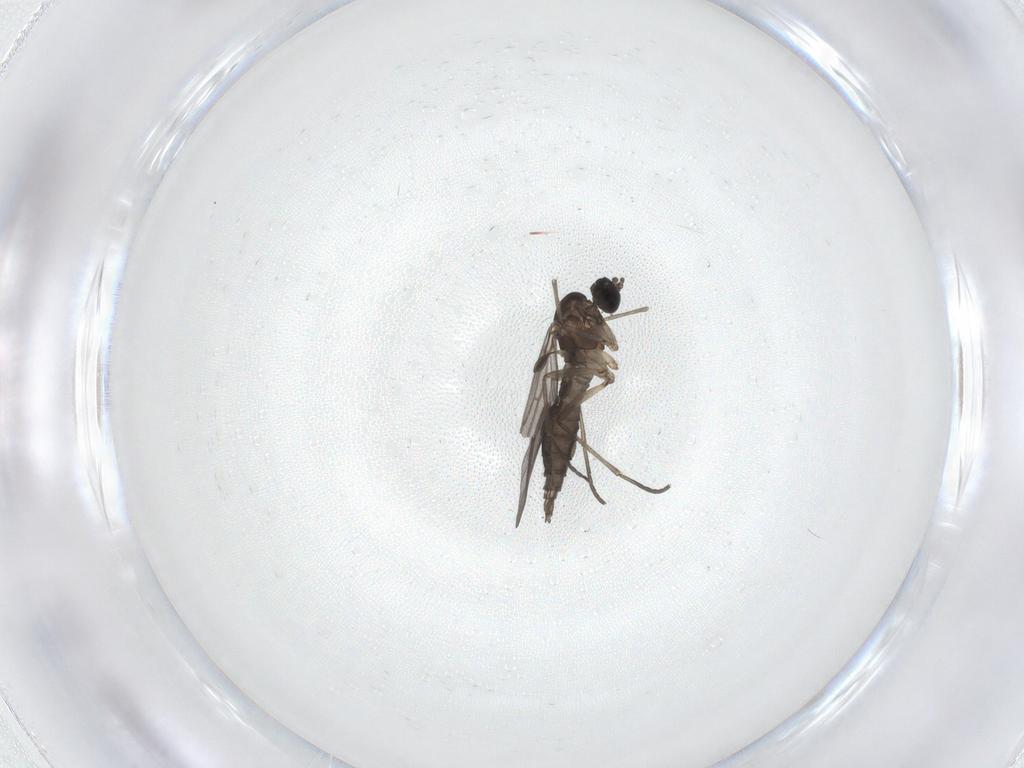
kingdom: Animalia
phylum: Arthropoda
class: Insecta
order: Diptera
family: Sciaridae
